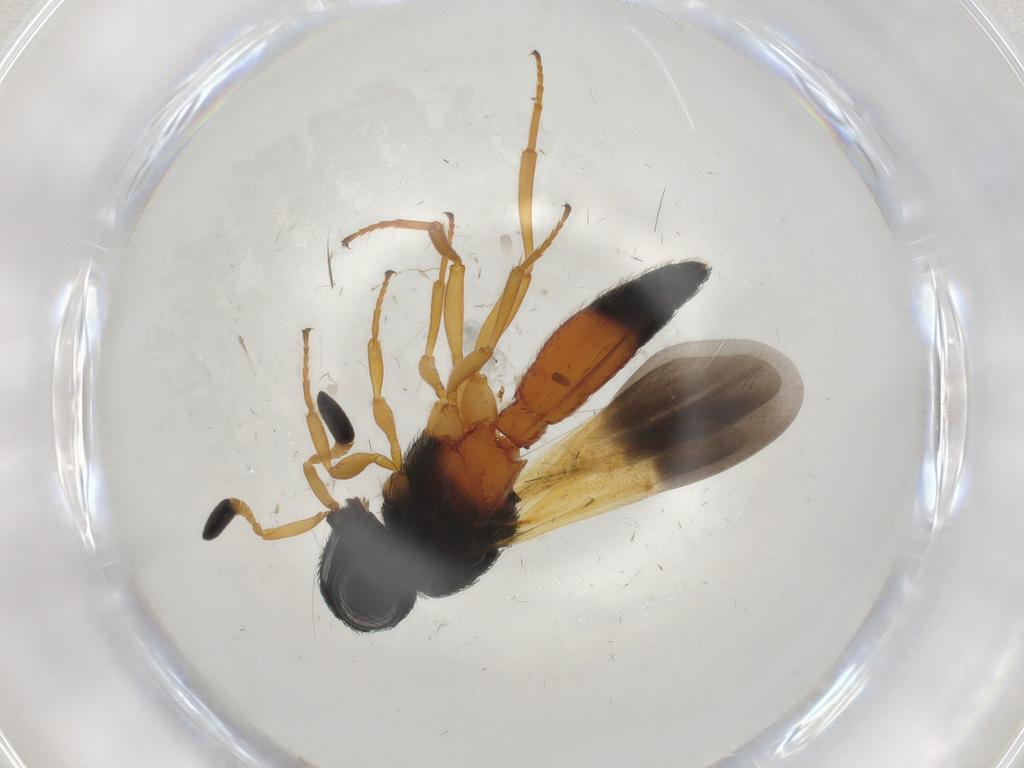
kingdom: Animalia
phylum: Arthropoda
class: Insecta
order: Hymenoptera
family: Scelionidae
